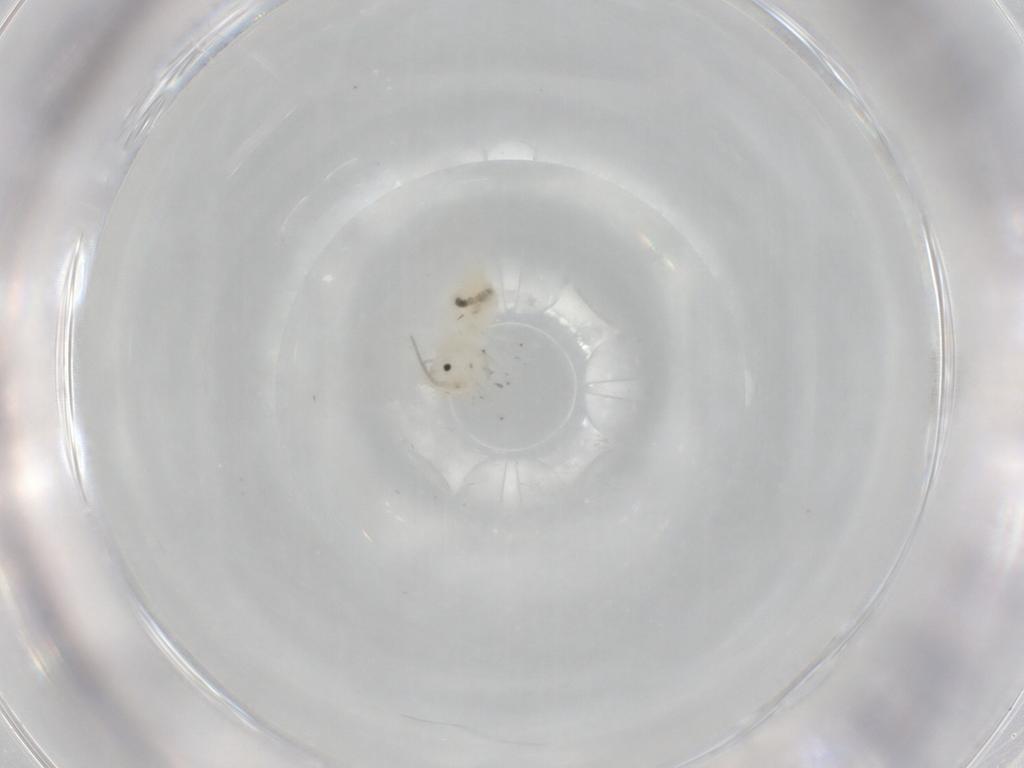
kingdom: Animalia
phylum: Arthropoda
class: Insecta
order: Psocodea
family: Caeciliusidae
